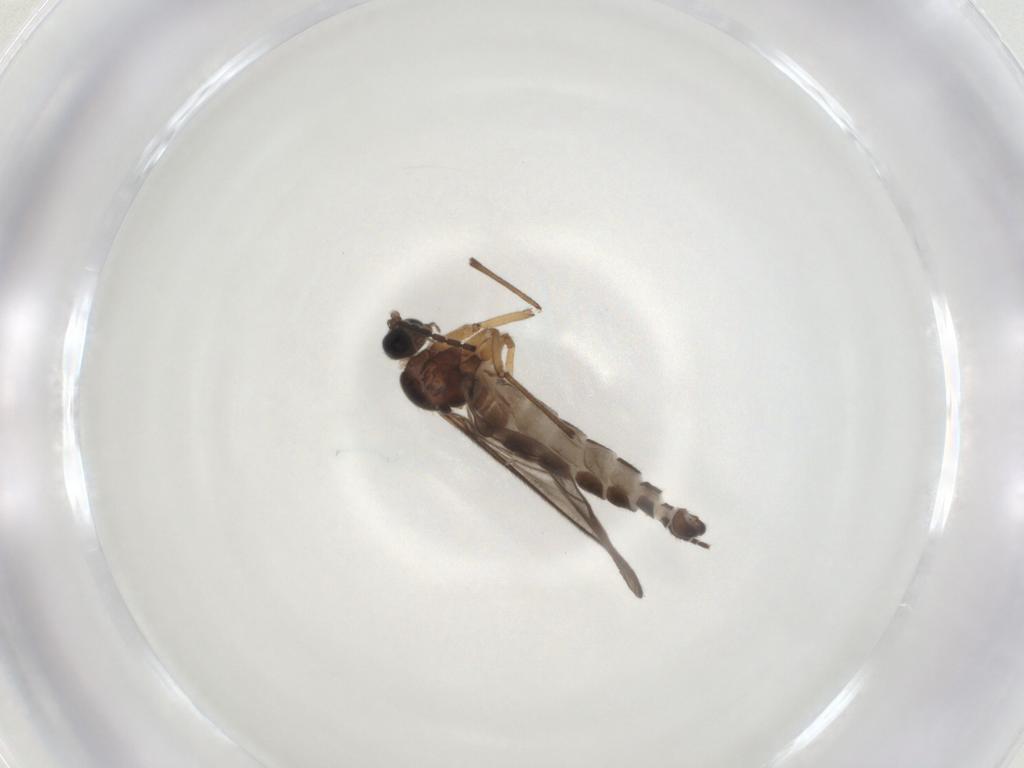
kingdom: Animalia
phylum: Arthropoda
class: Insecta
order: Diptera
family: Sciaridae
